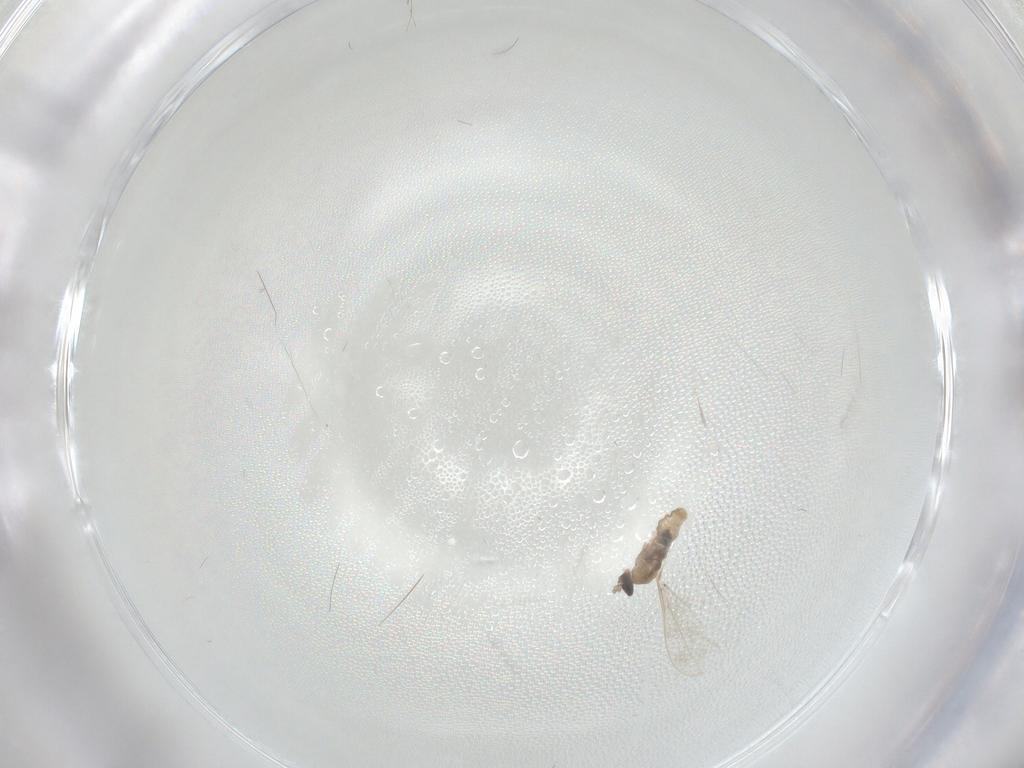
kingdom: Animalia
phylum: Arthropoda
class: Insecta
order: Diptera
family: Cecidomyiidae
